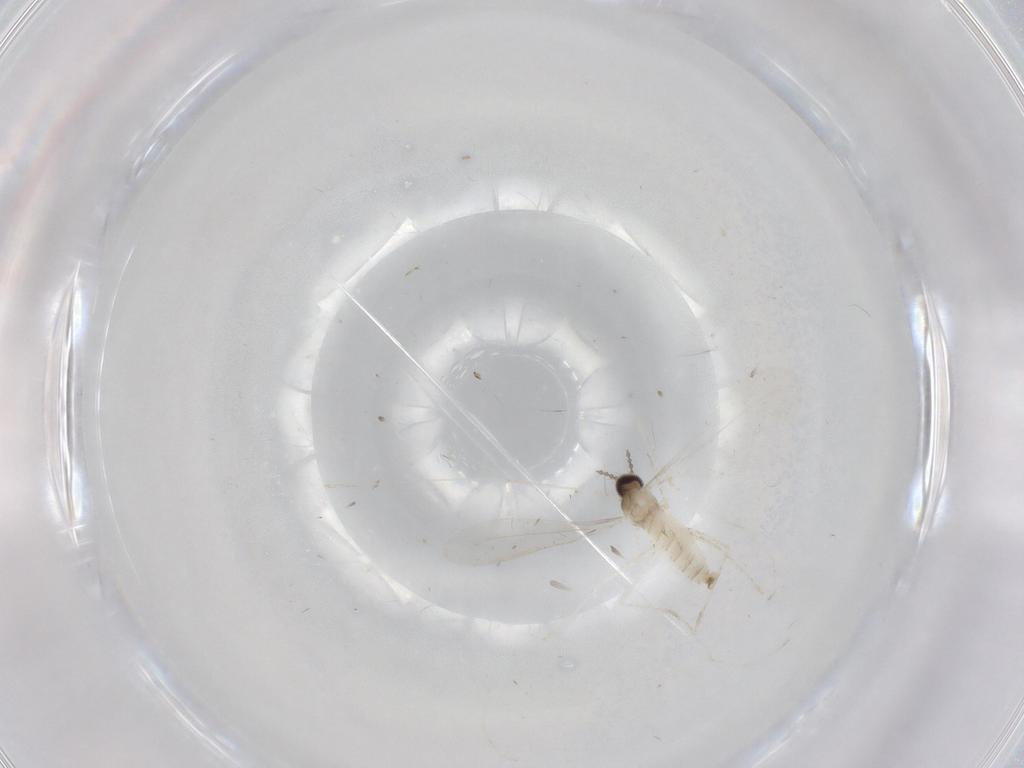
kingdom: Animalia
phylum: Arthropoda
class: Insecta
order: Diptera
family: Cecidomyiidae
